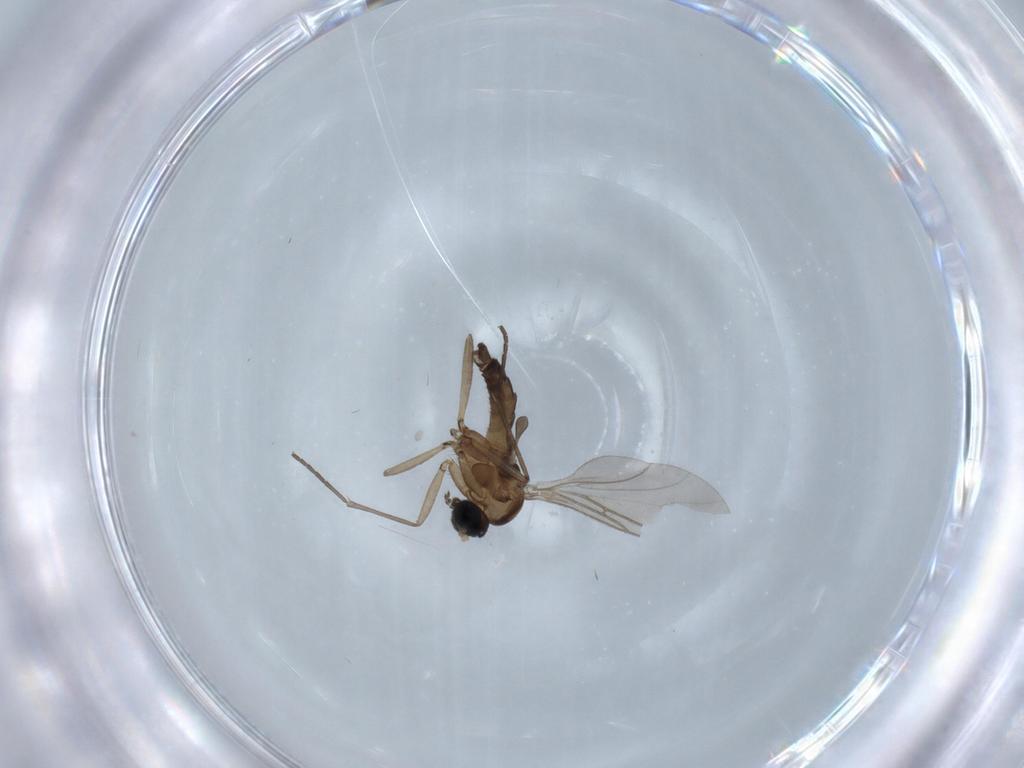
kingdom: Animalia
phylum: Arthropoda
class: Insecta
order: Diptera
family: Sciaridae
